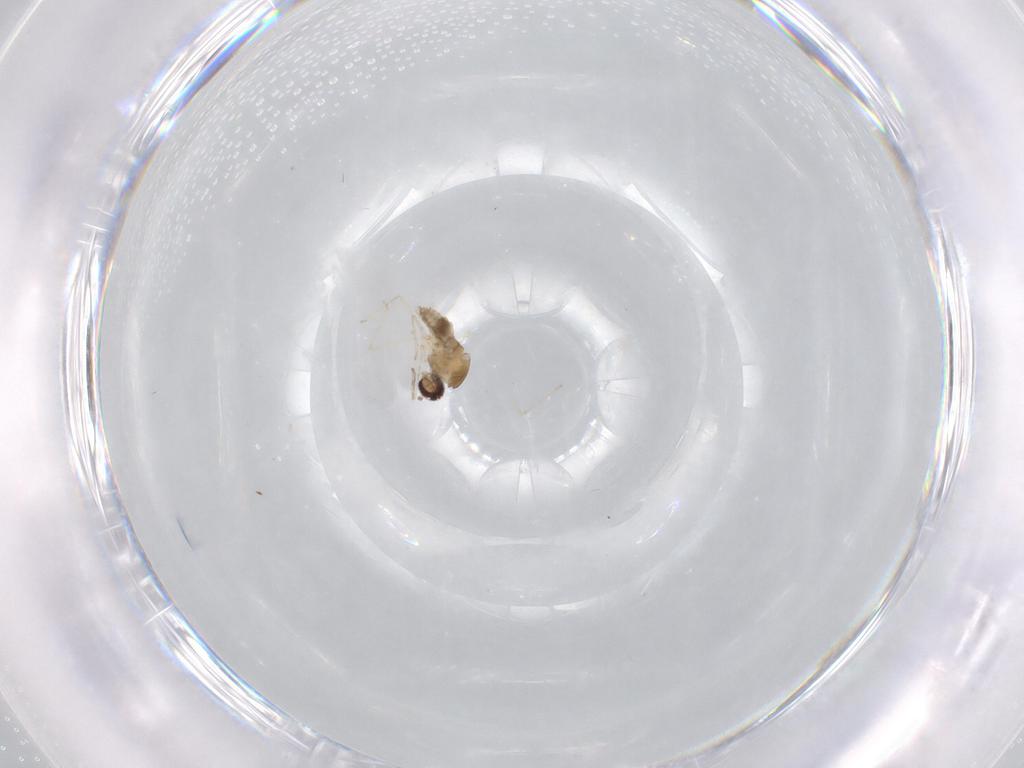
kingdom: Animalia
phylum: Arthropoda
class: Insecta
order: Diptera
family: Cecidomyiidae
